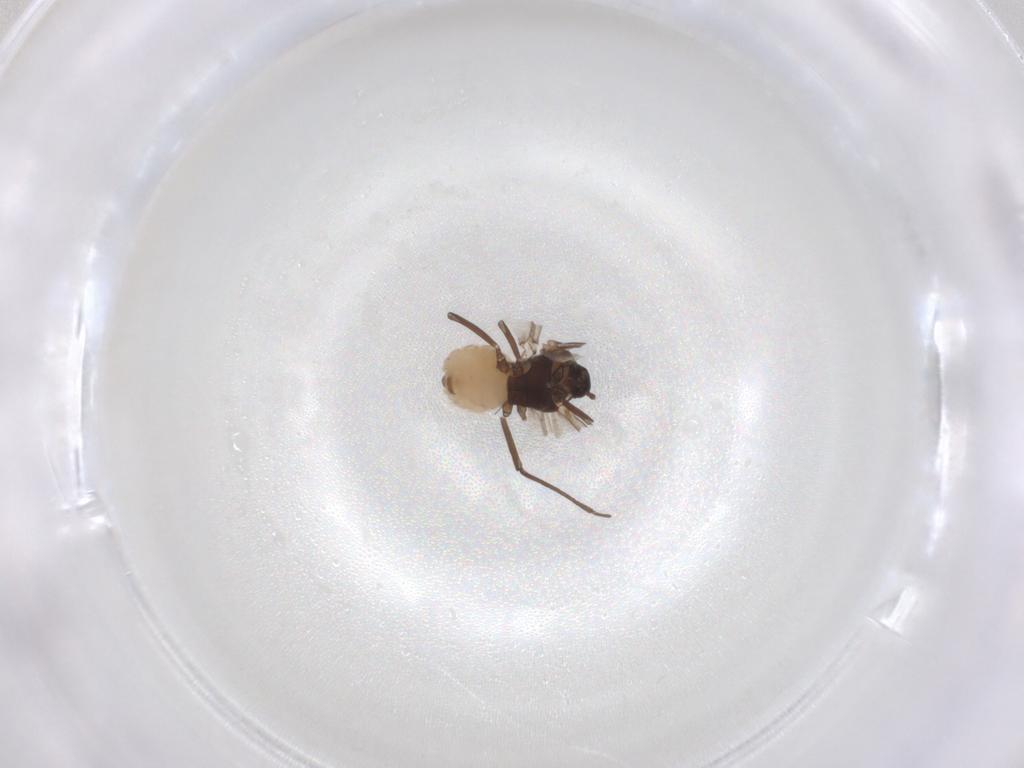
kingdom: Animalia
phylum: Arthropoda
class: Insecta
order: Hemiptera
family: Aphididae
